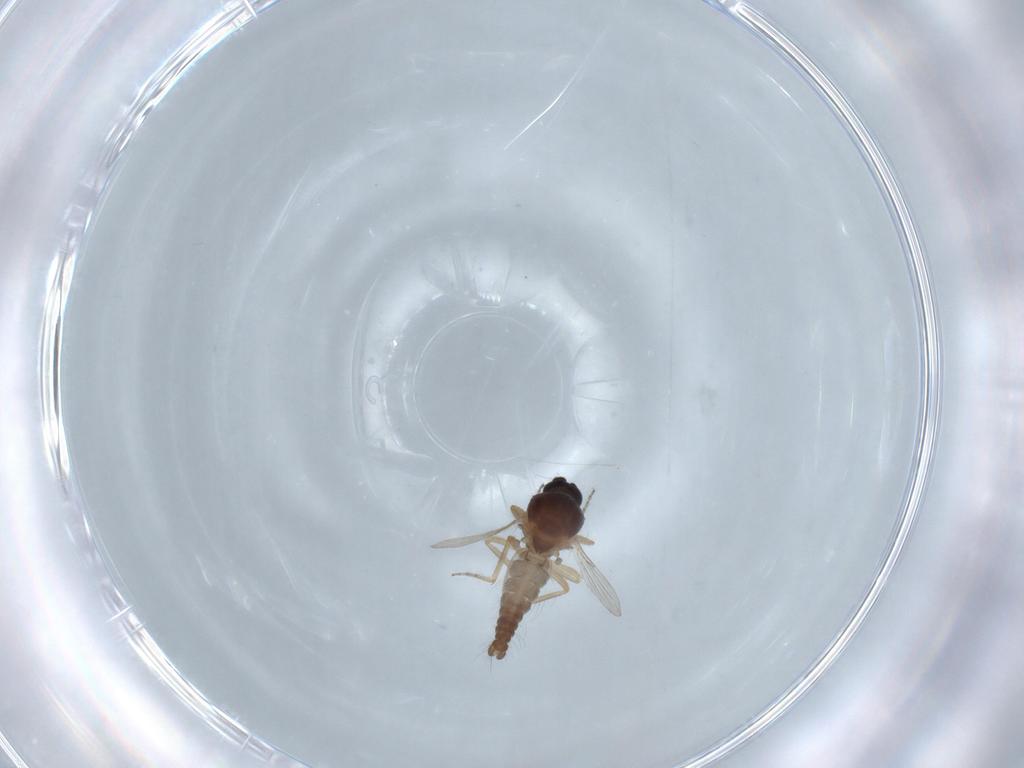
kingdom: Animalia
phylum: Arthropoda
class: Insecta
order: Diptera
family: Ceratopogonidae
